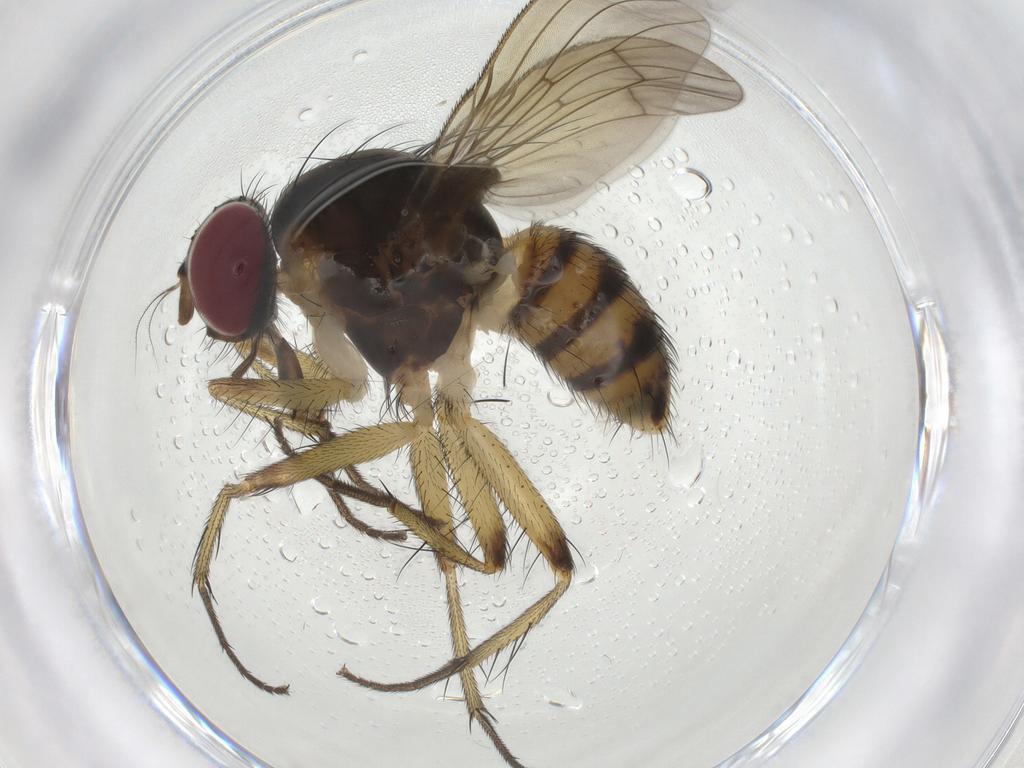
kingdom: Animalia
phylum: Arthropoda
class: Insecta
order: Diptera
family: Muscidae
